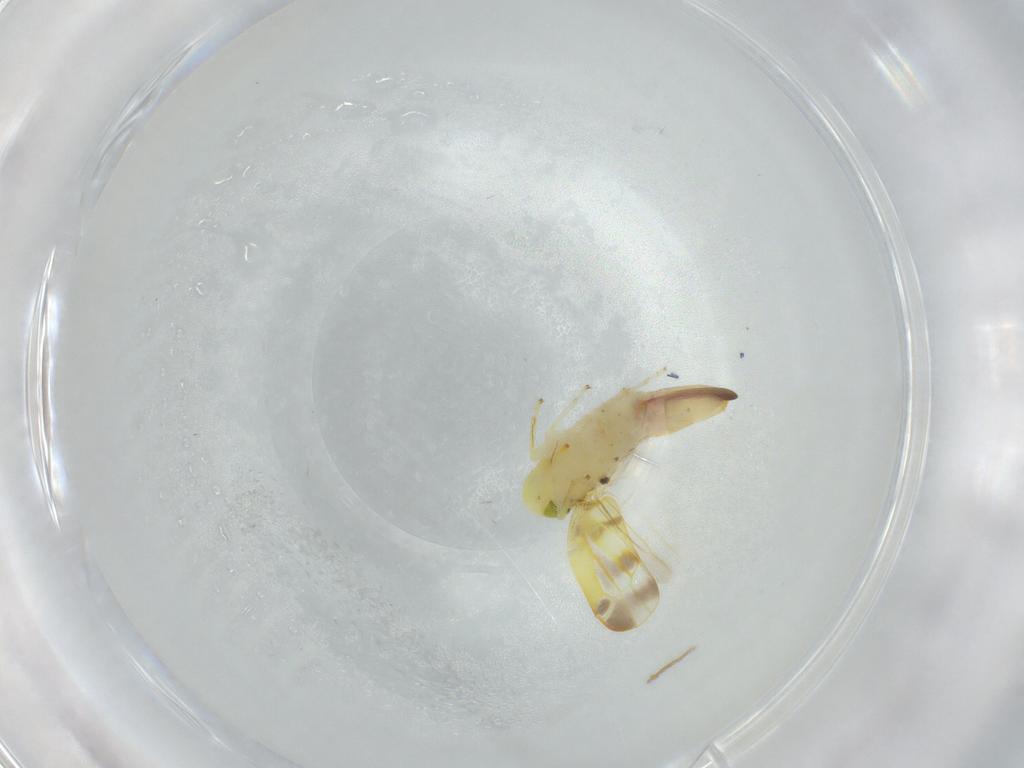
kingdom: Animalia
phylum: Arthropoda
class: Insecta
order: Hemiptera
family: Cicadellidae
